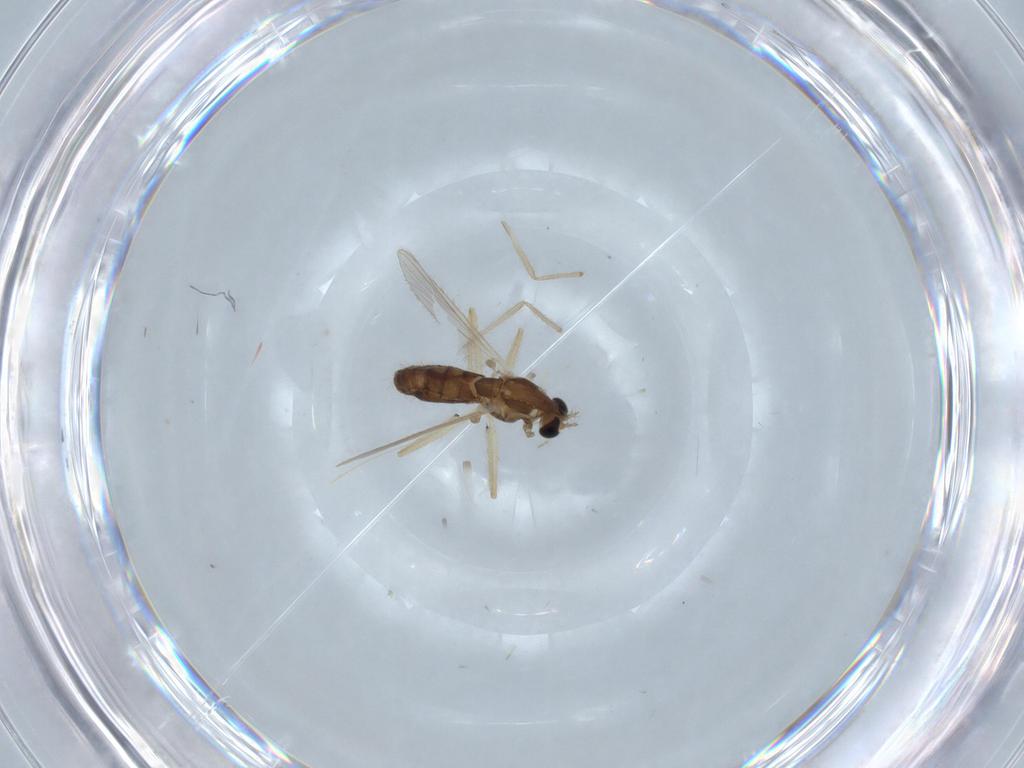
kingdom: Animalia
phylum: Arthropoda
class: Insecta
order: Diptera
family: Chironomidae
